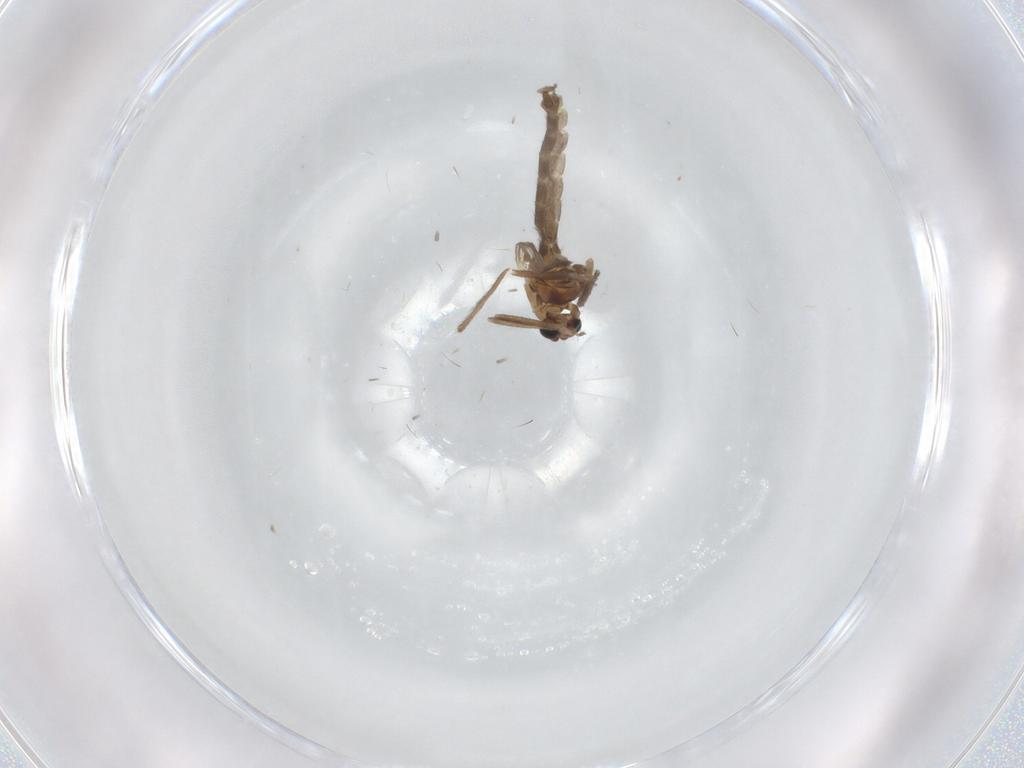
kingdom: Animalia
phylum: Arthropoda
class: Insecta
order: Diptera
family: Chironomidae
